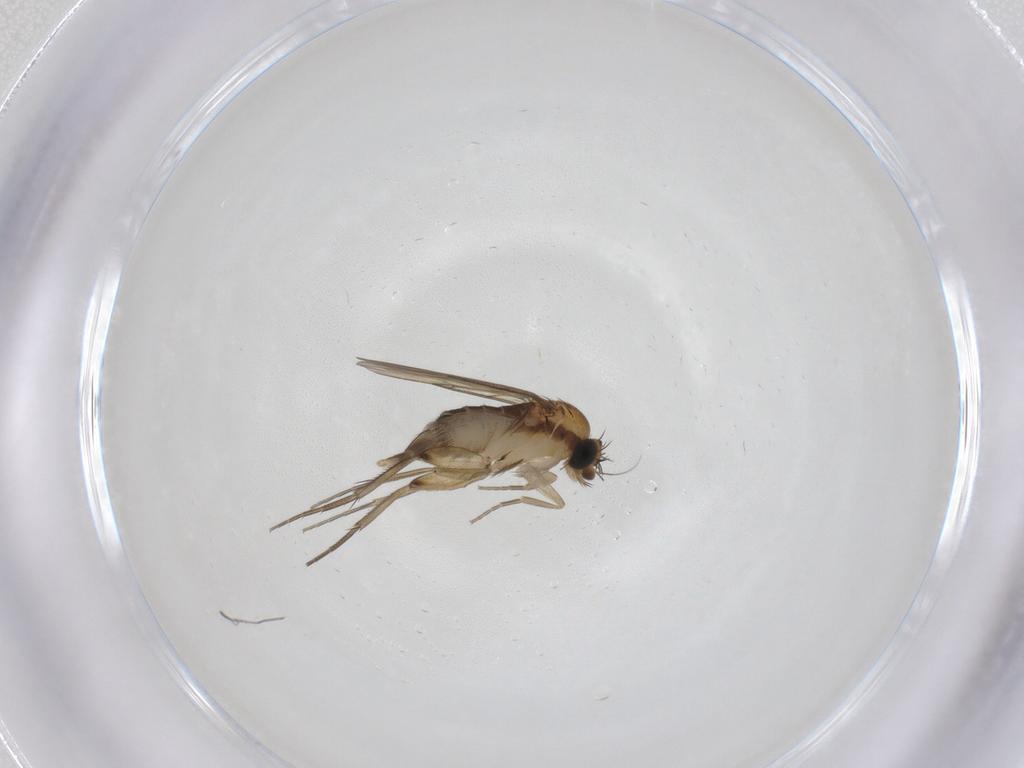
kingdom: Animalia
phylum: Arthropoda
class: Insecta
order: Diptera
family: Phoridae
